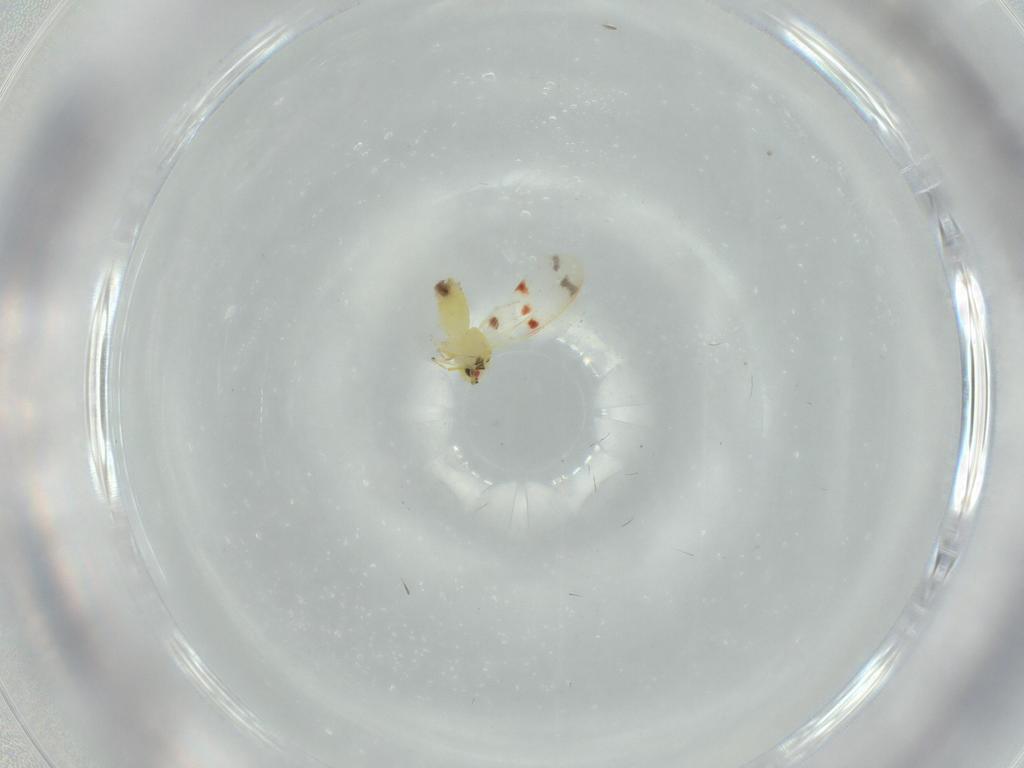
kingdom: Animalia
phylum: Arthropoda
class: Insecta
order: Hemiptera
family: Aleyrodidae
